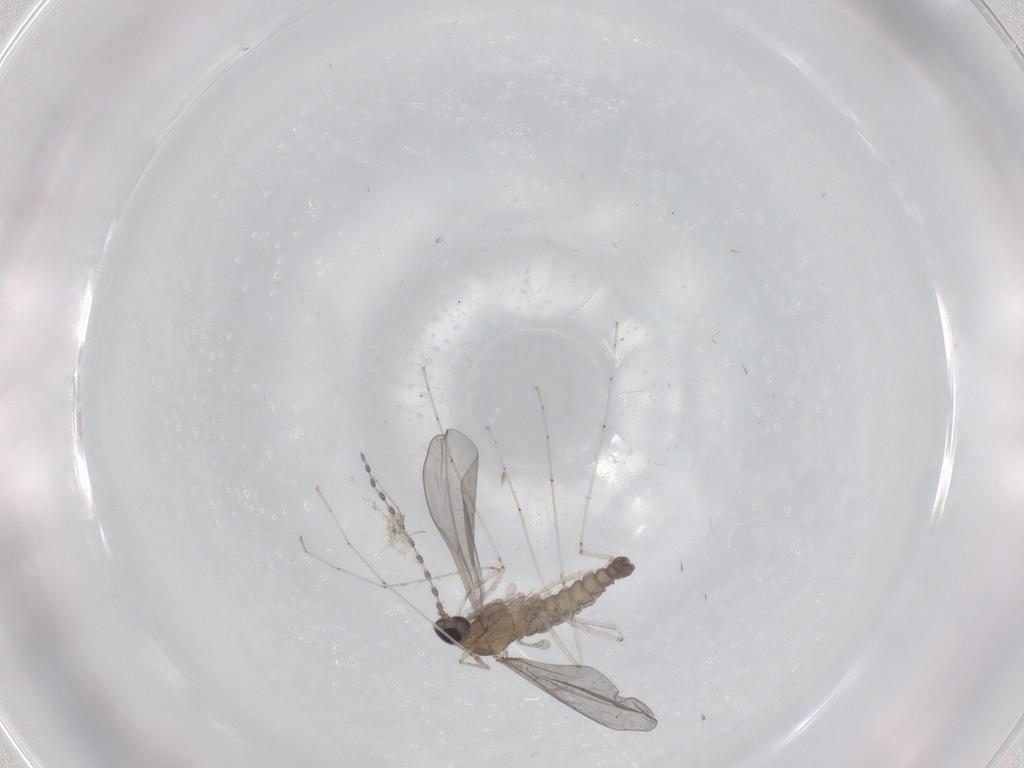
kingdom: Animalia
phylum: Arthropoda
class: Insecta
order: Diptera
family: Cecidomyiidae
